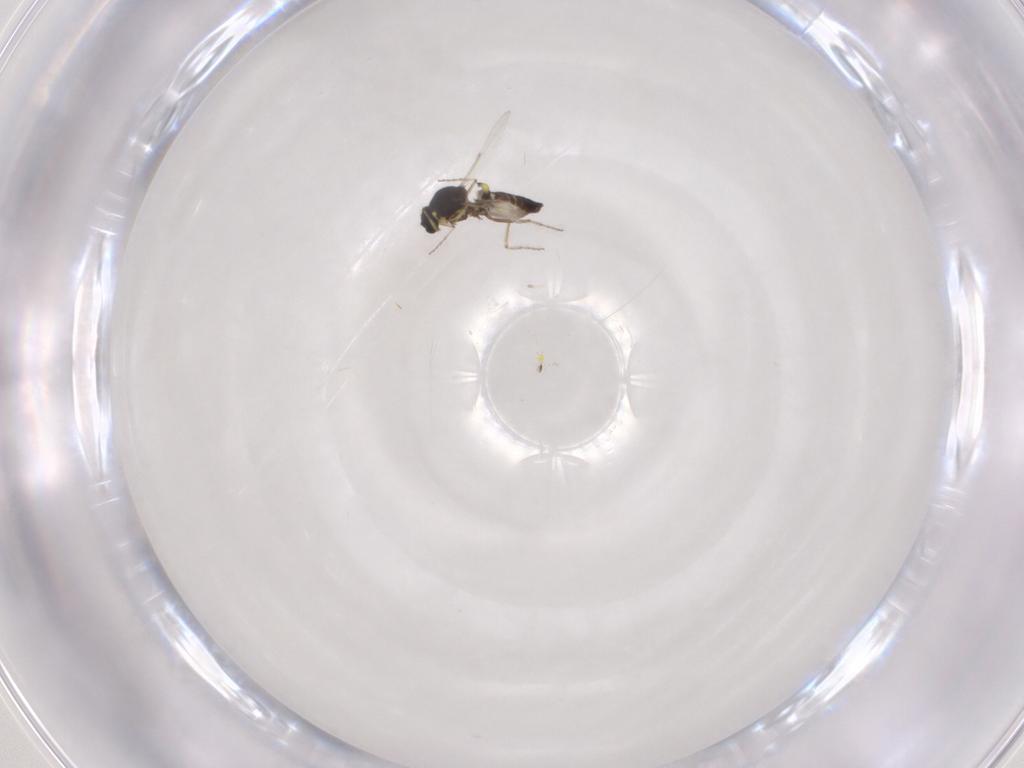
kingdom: Animalia
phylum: Arthropoda
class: Insecta
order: Diptera
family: Ceratopogonidae
